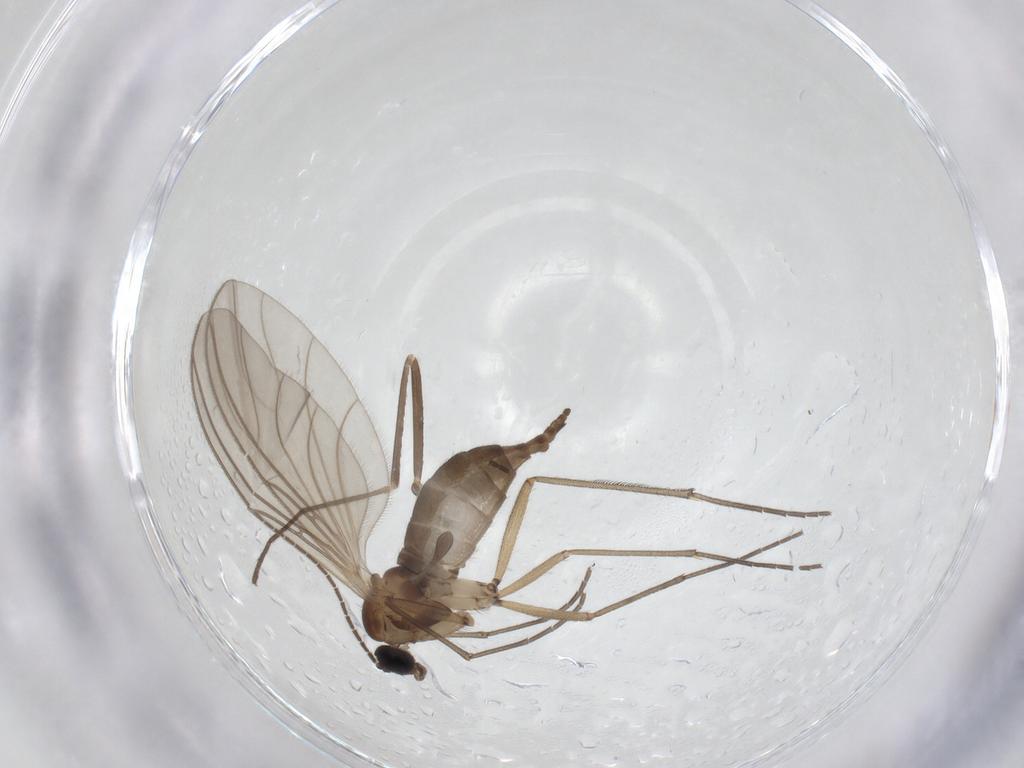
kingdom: Animalia
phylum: Arthropoda
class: Insecta
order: Diptera
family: Sciaridae
